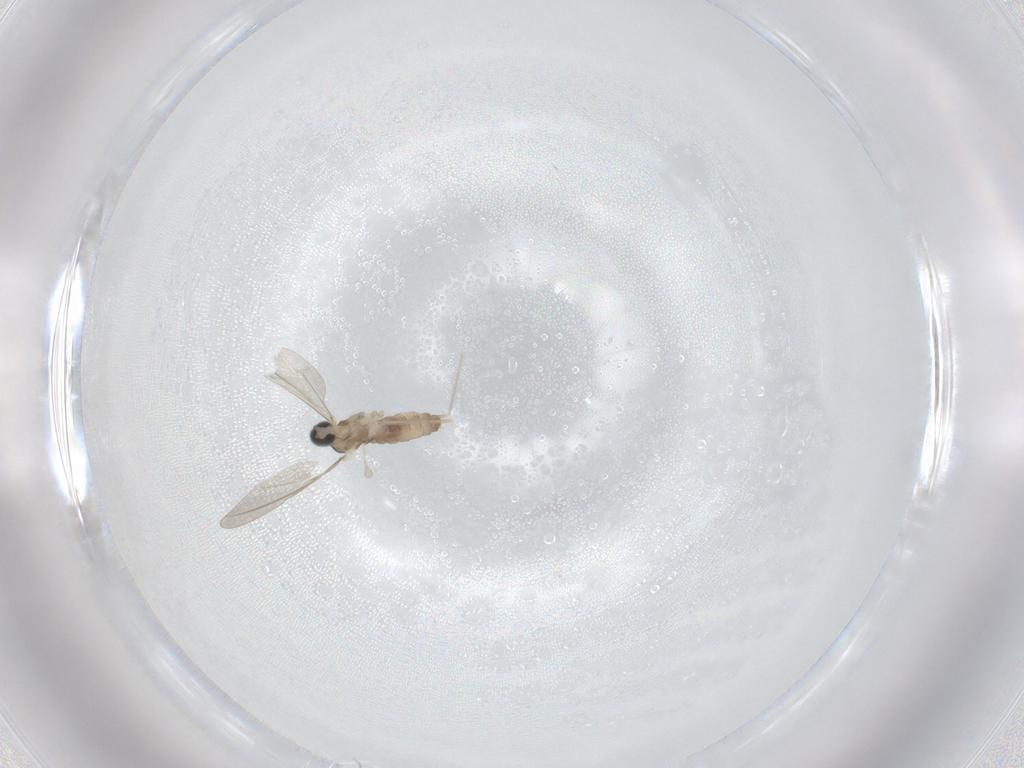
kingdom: Animalia
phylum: Arthropoda
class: Insecta
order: Diptera
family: Cecidomyiidae
